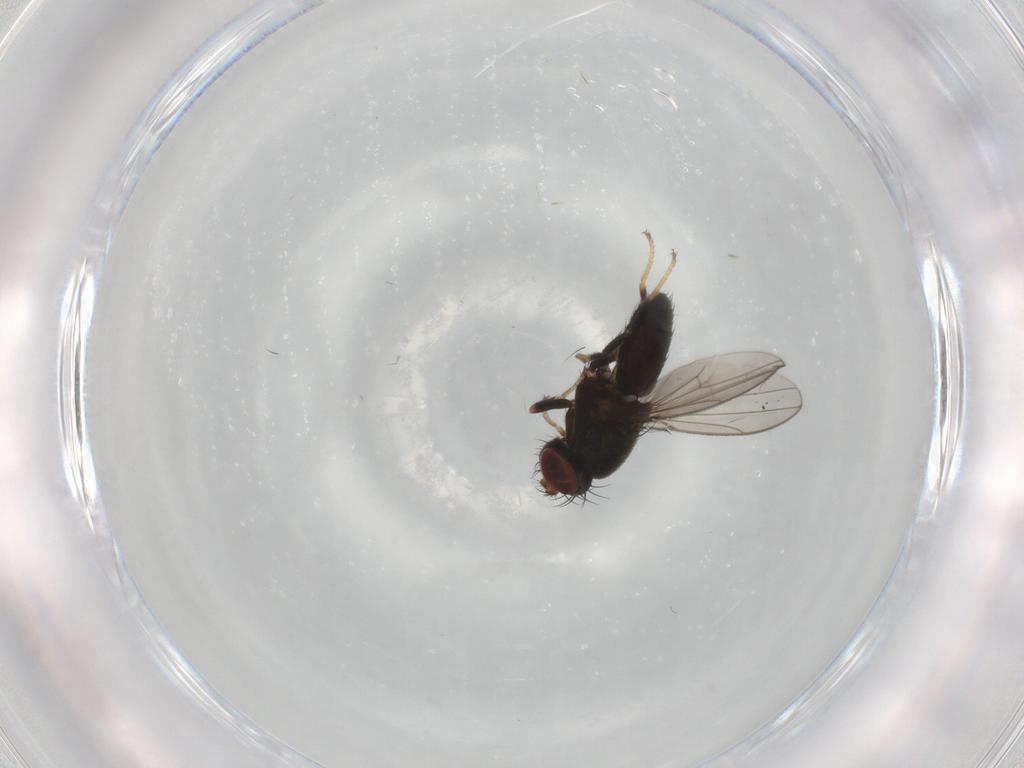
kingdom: Animalia
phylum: Arthropoda
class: Insecta
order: Diptera
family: Ephydridae
